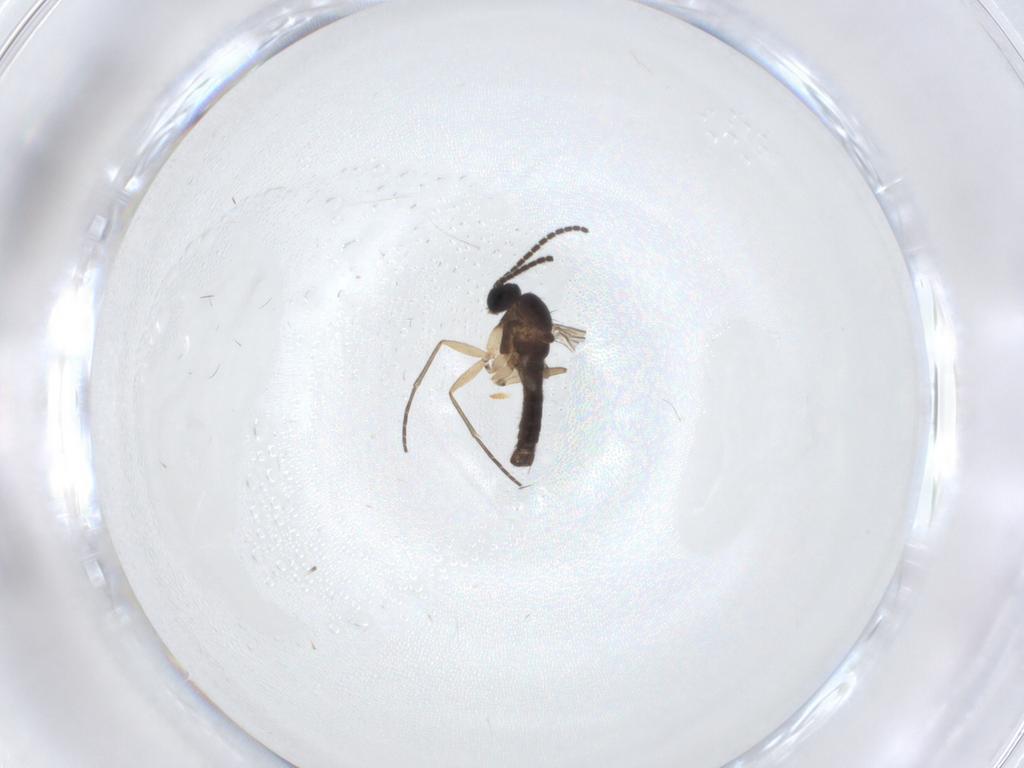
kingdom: Animalia
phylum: Arthropoda
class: Insecta
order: Diptera
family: Sciaridae
